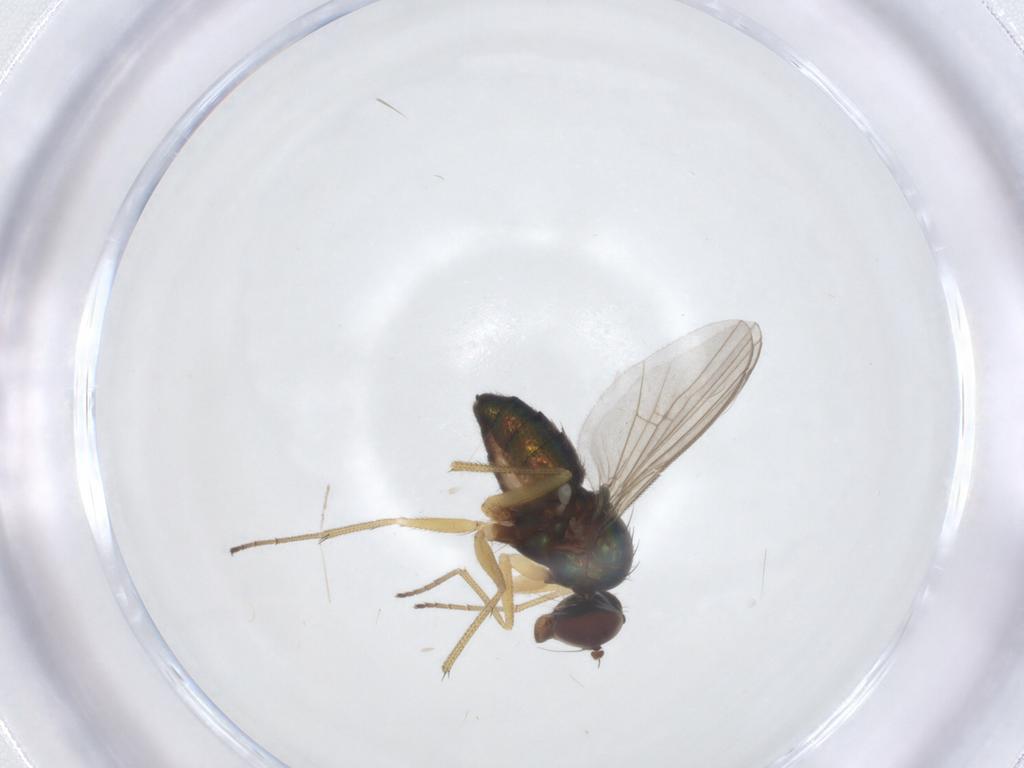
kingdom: Animalia
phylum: Arthropoda
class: Insecta
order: Diptera
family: Dolichopodidae
